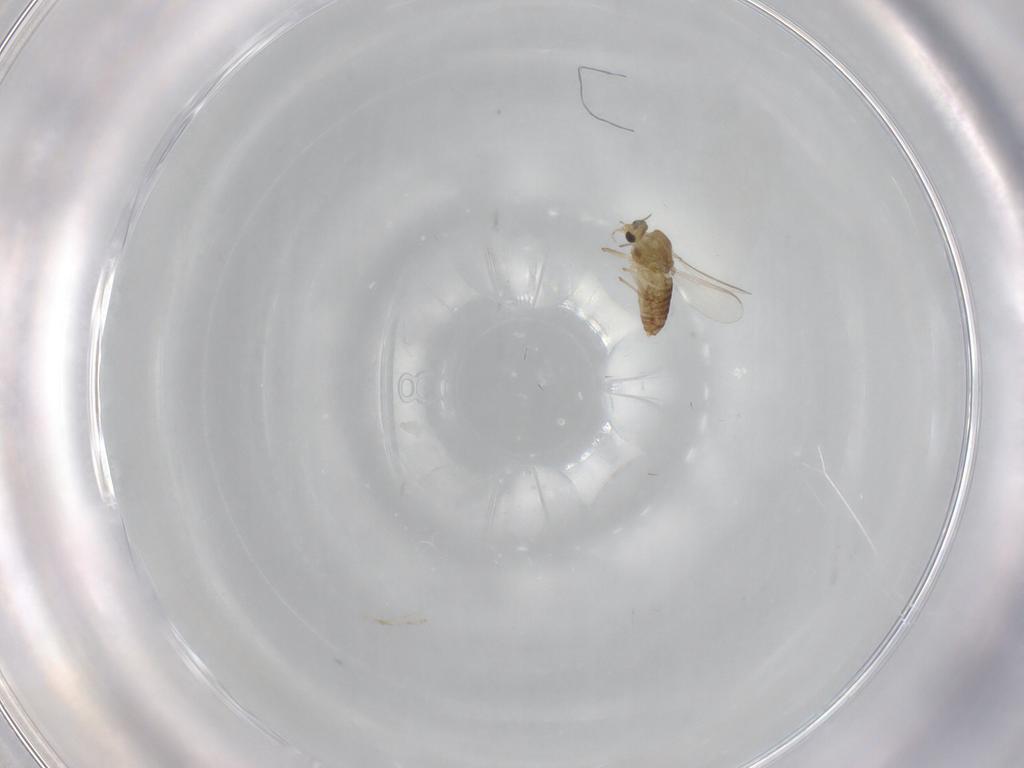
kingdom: Animalia
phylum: Arthropoda
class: Insecta
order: Diptera
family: Chironomidae
